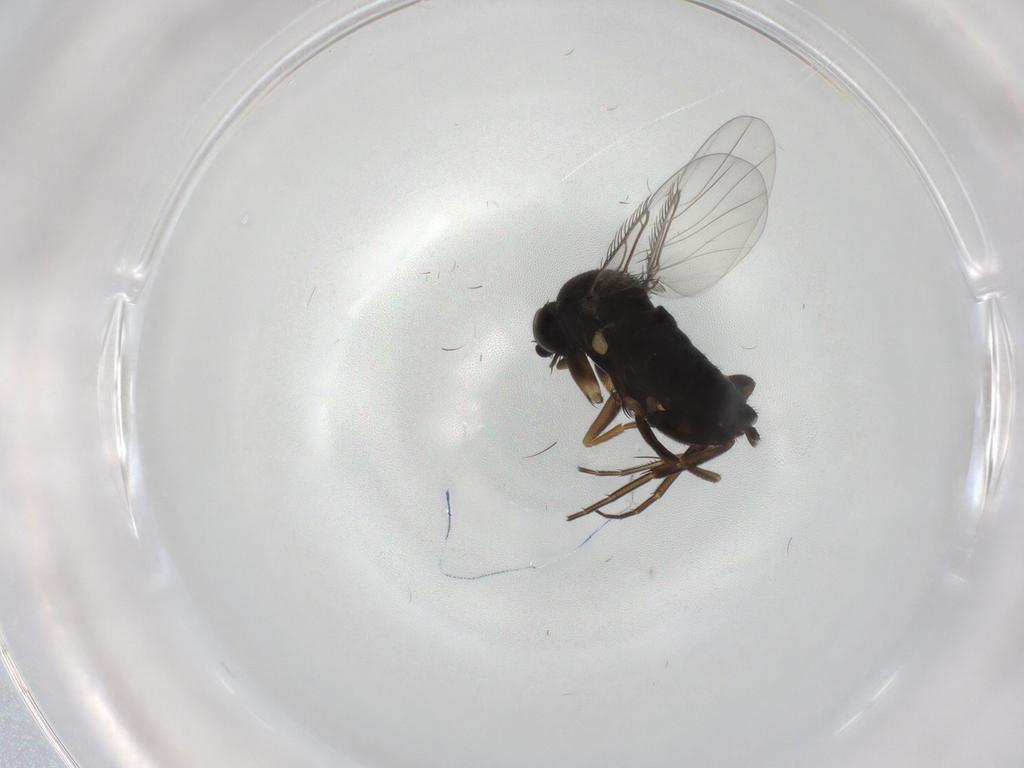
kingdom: Animalia
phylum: Arthropoda
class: Insecta
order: Diptera
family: Phoridae
